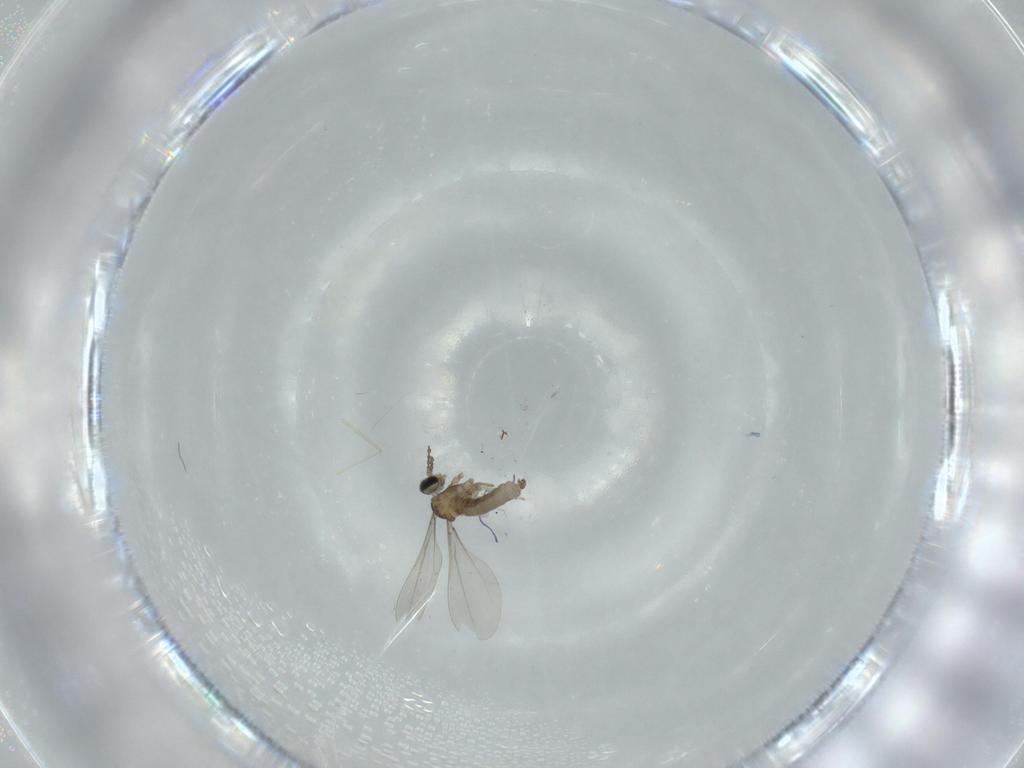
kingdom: Animalia
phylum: Arthropoda
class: Insecta
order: Diptera
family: Cecidomyiidae
